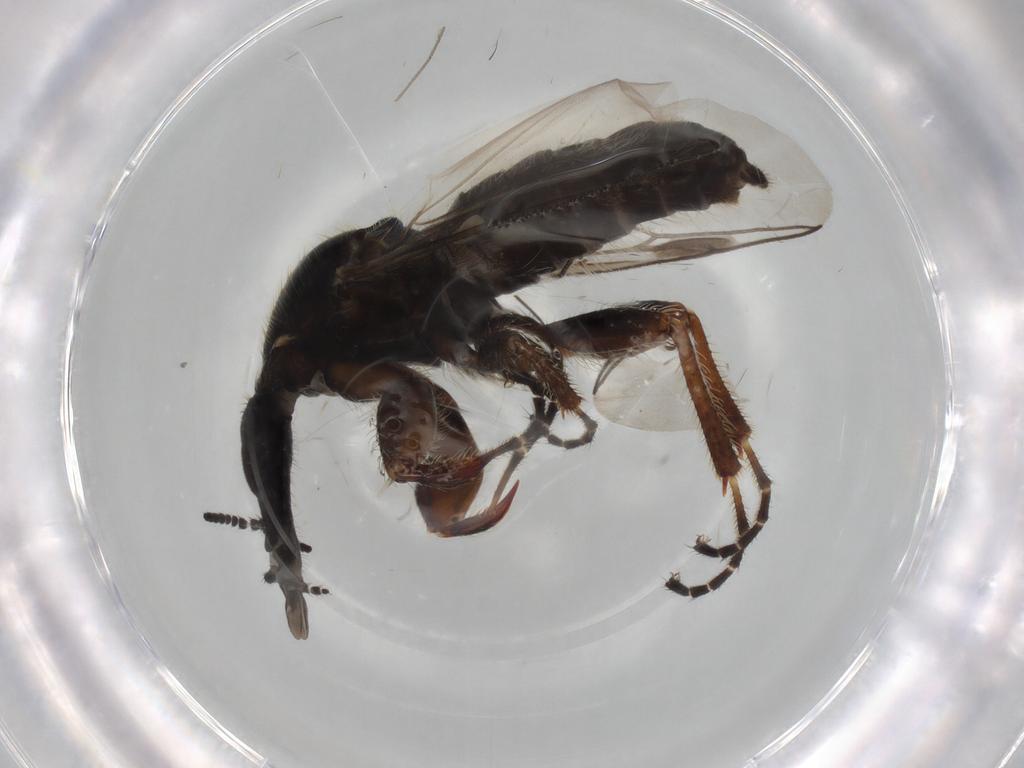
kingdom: Animalia
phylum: Arthropoda
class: Insecta
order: Diptera
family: Bibionidae
